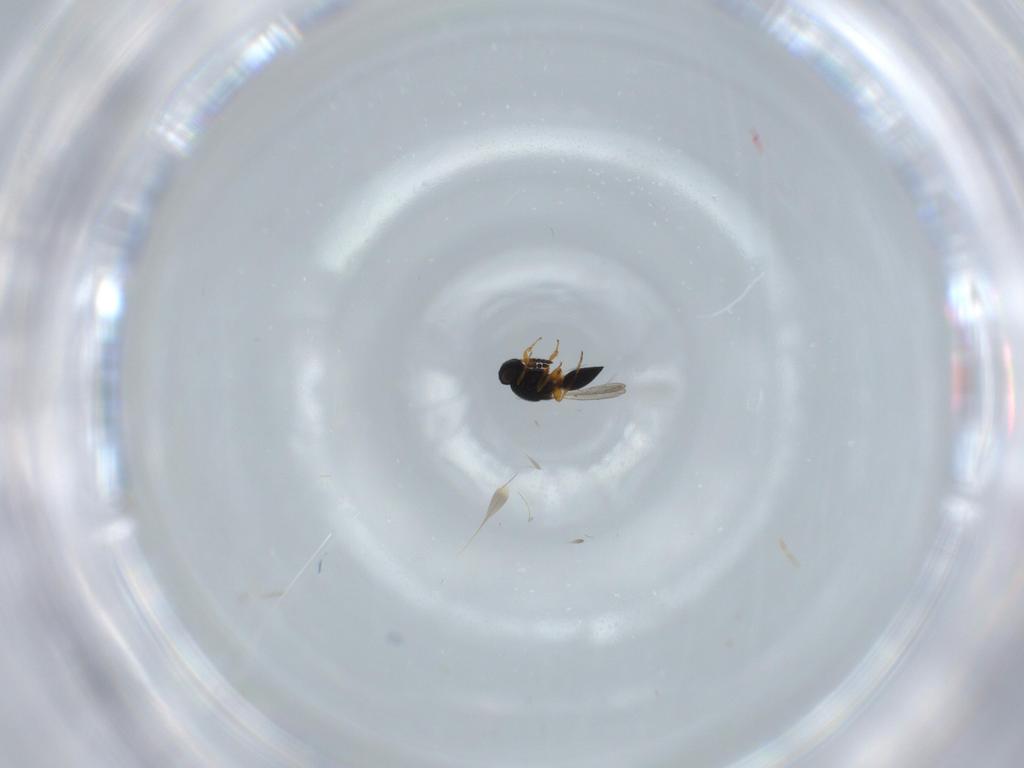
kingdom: Animalia
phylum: Arthropoda
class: Insecta
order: Hymenoptera
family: Platygastridae
